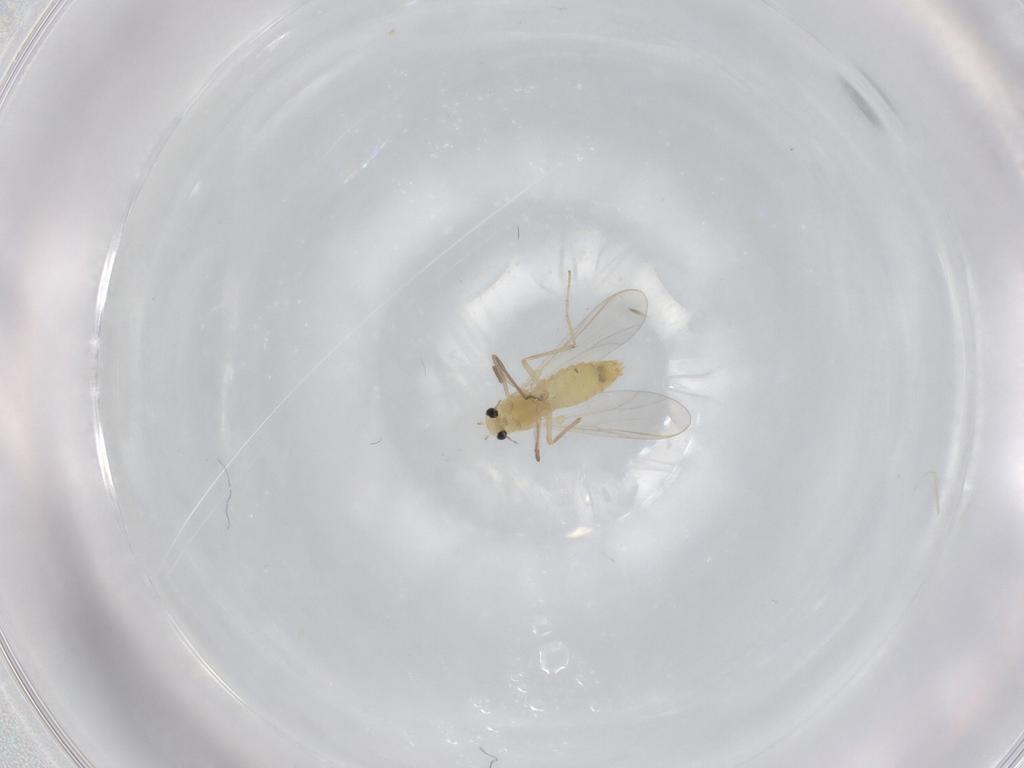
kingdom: Animalia
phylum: Arthropoda
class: Insecta
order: Diptera
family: Chironomidae
